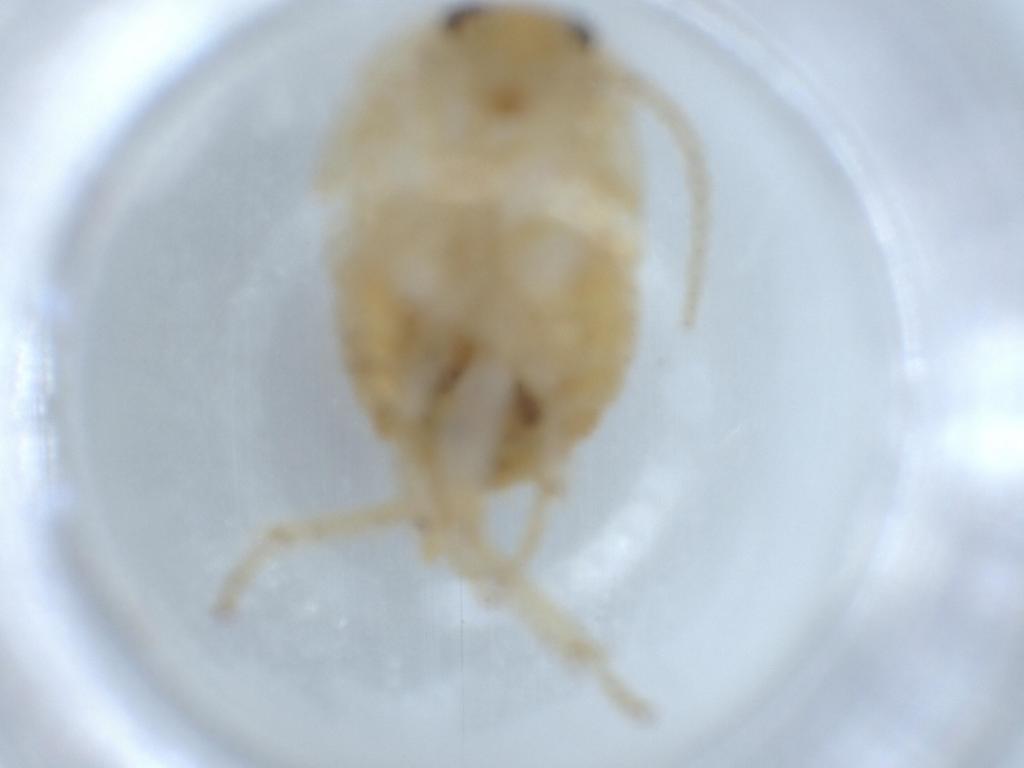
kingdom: Animalia
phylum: Arthropoda
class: Insecta
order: Blattodea
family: Ectobiidae
